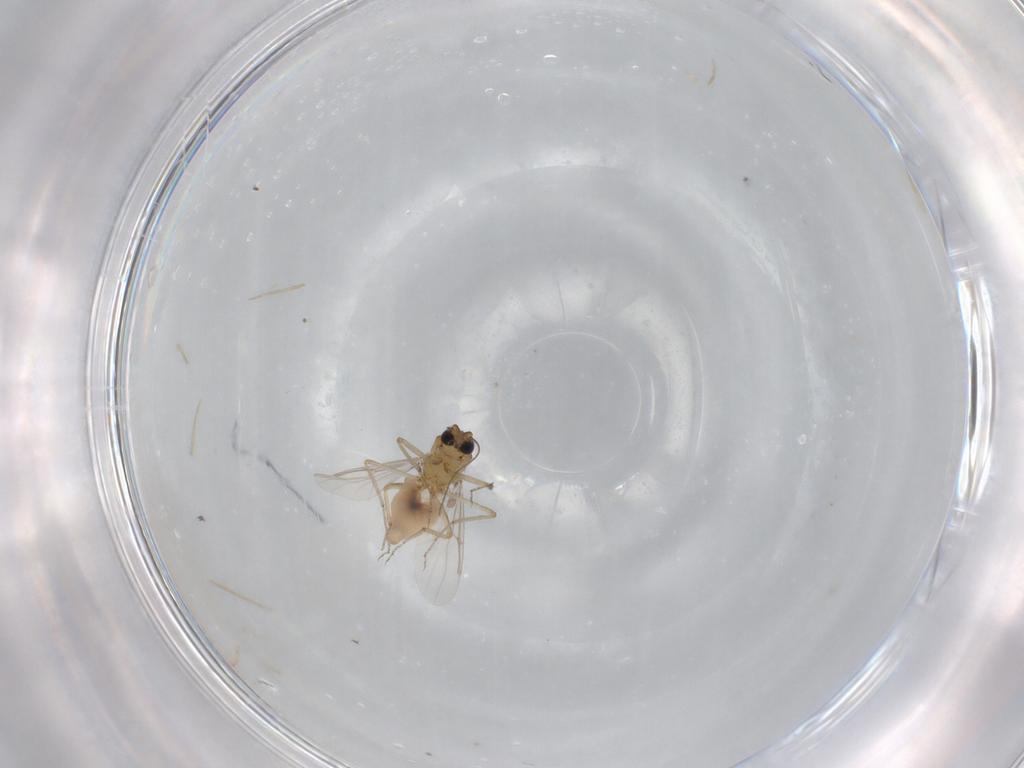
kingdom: Animalia
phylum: Arthropoda
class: Insecta
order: Diptera
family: Ceratopogonidae
